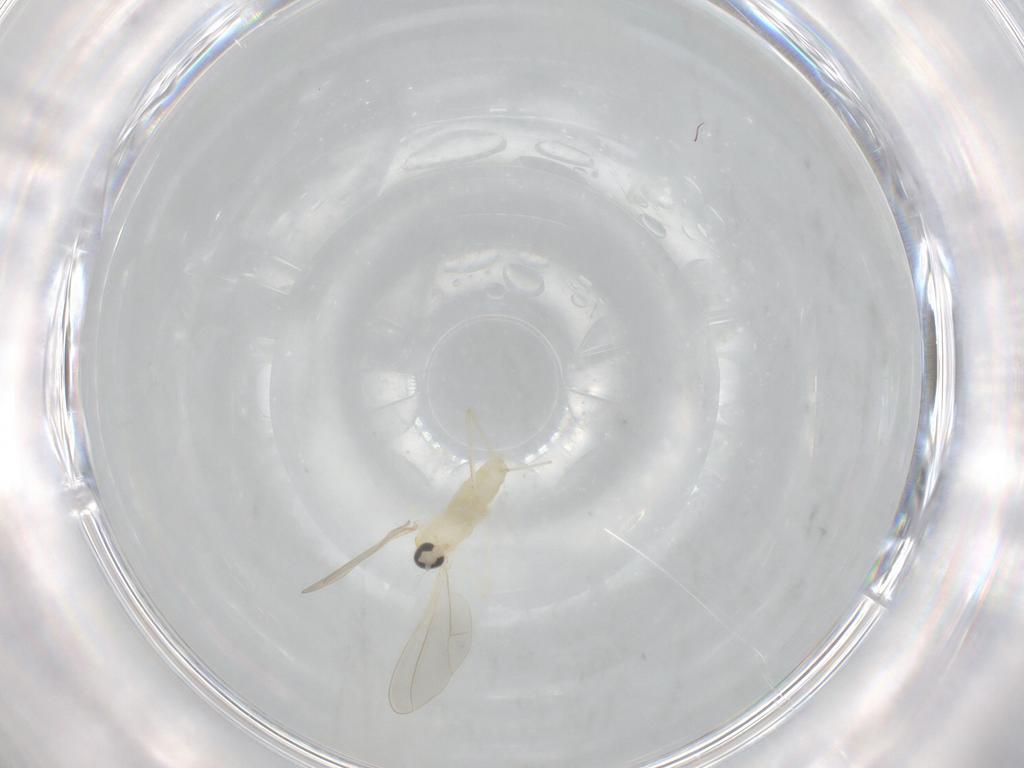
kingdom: Animalia
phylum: Arthropoda
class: Insecta
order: Diptera
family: Cecidomyiidae
